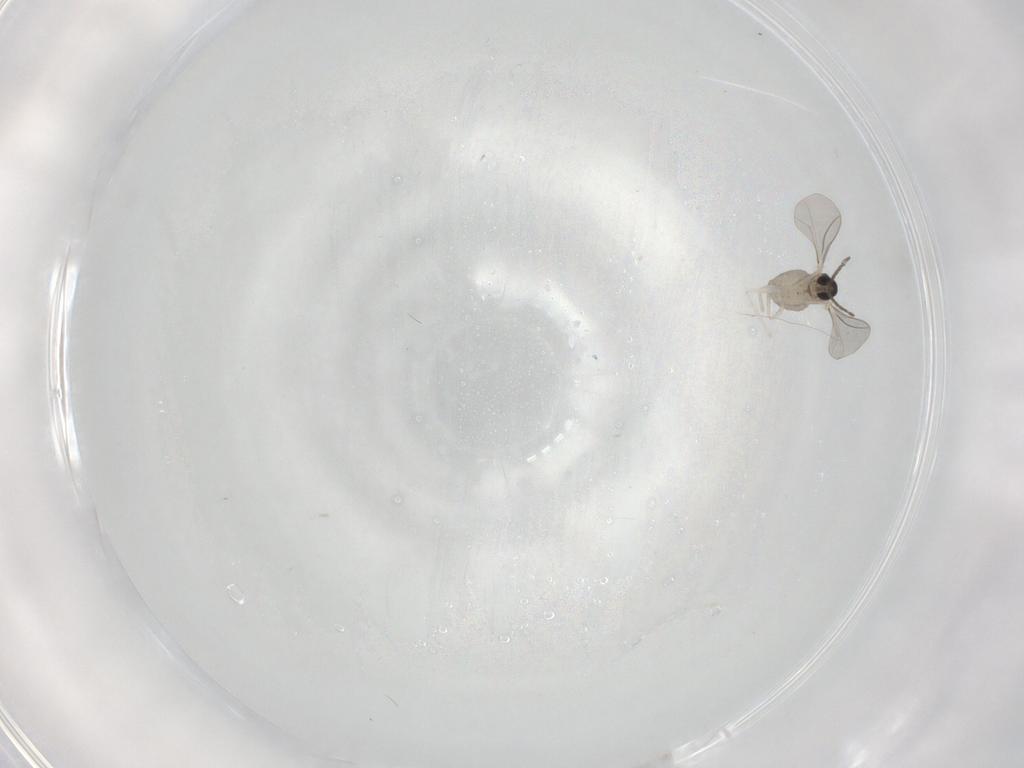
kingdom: Animalia
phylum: Arthropoda
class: Insecta
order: Diptera
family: Cecidomyiidae
